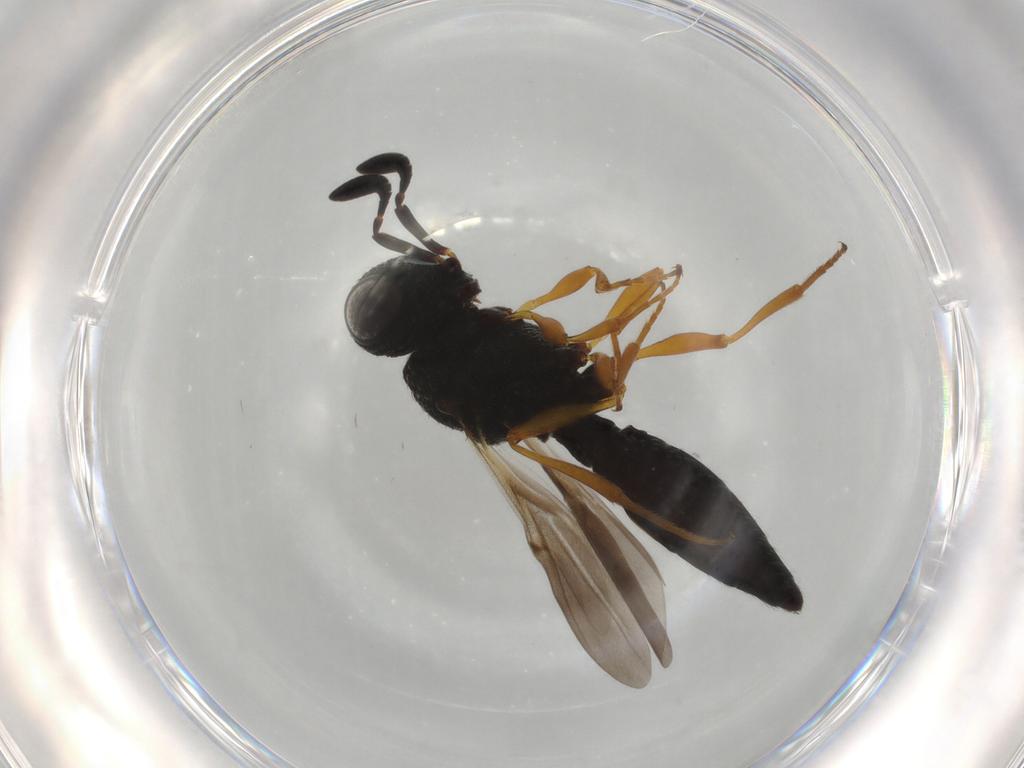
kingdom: Animalia
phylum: Arthropoda
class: Insecta
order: Hymenoptera
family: Scelionidae
